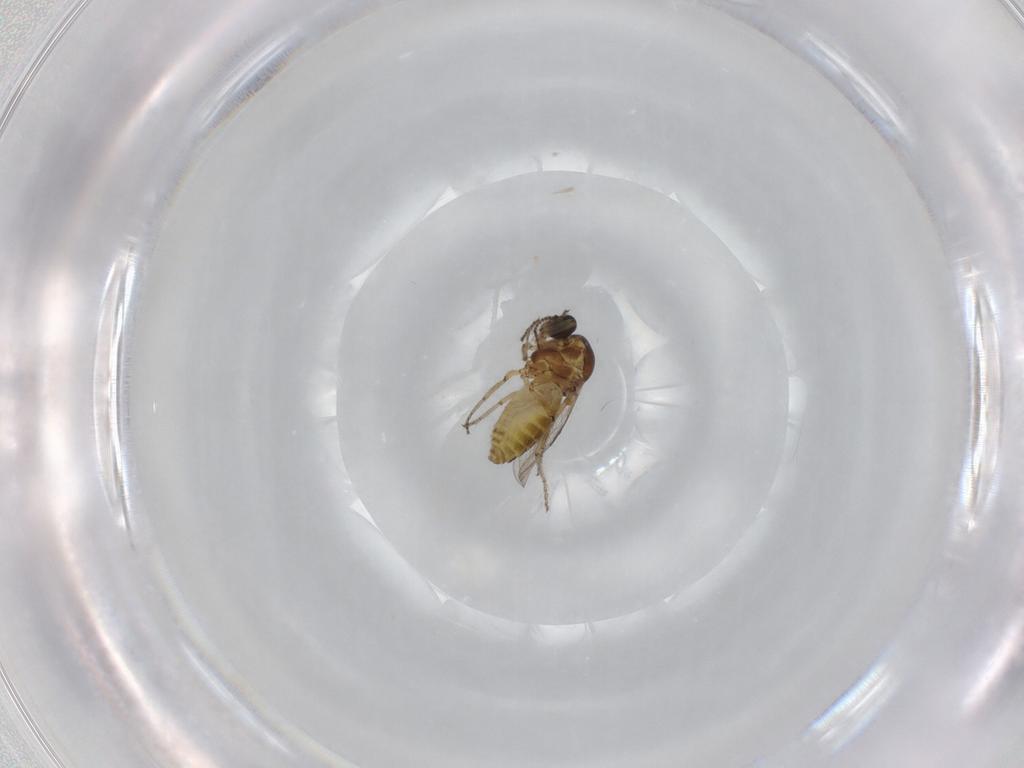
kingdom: Animalia
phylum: Arthropoda
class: Insecta
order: Diptera
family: Ceratopogonidae
